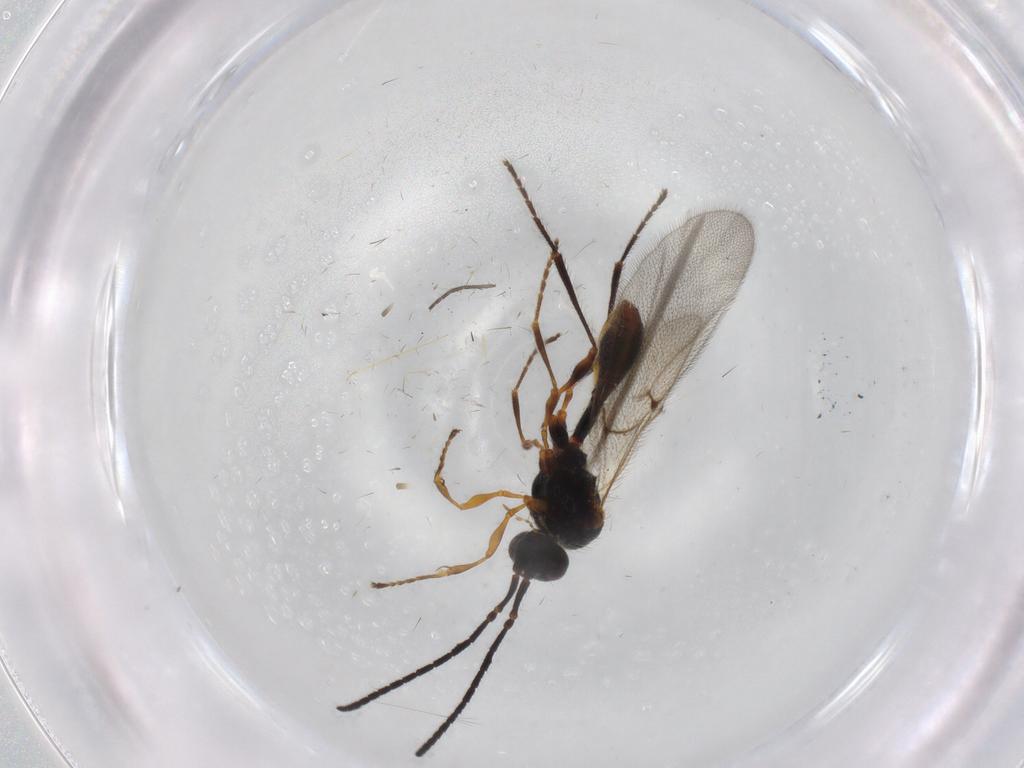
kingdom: Animalia
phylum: Arthropoda
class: Insecta
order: Hymenoptera
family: Diapriidae
